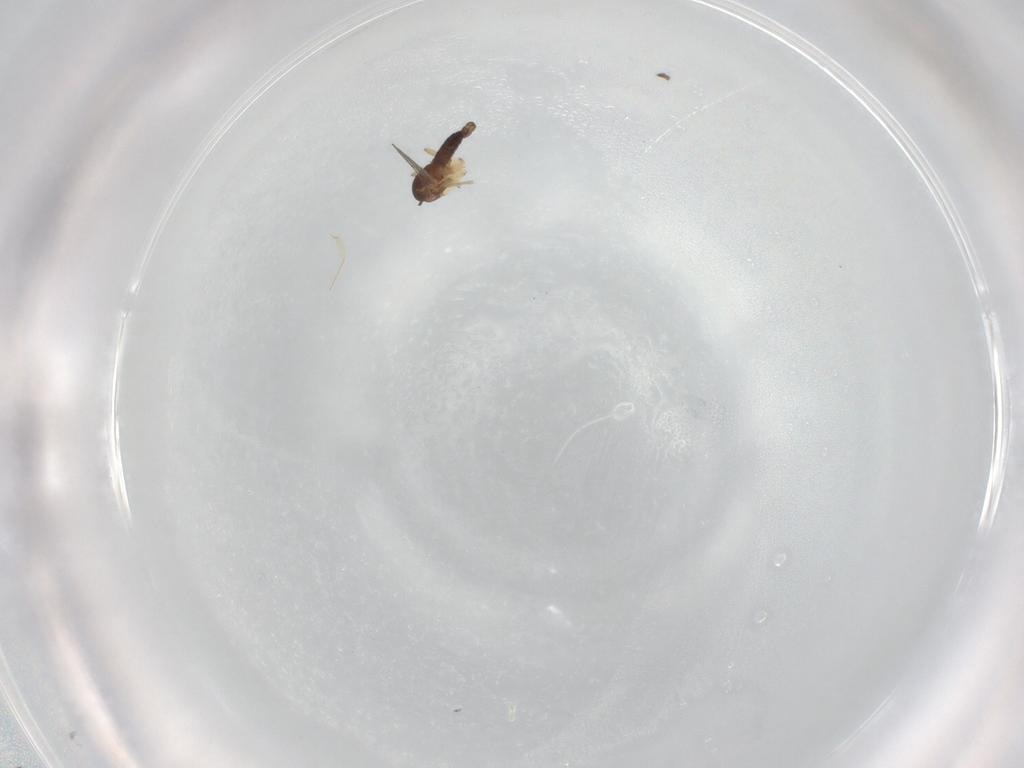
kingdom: Animalia
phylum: Arthropoda
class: Insecta
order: Diptera
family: Sciaridae
